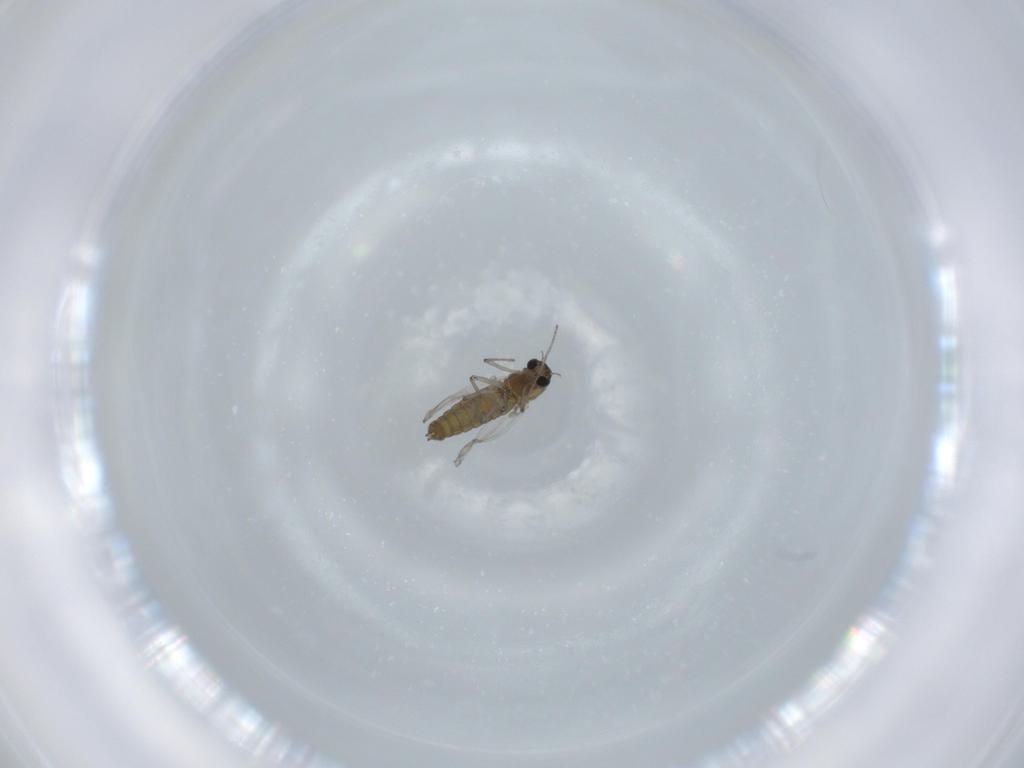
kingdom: Animalia
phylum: Arthropoda
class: Insecta
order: Diptera
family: Chironomidae
